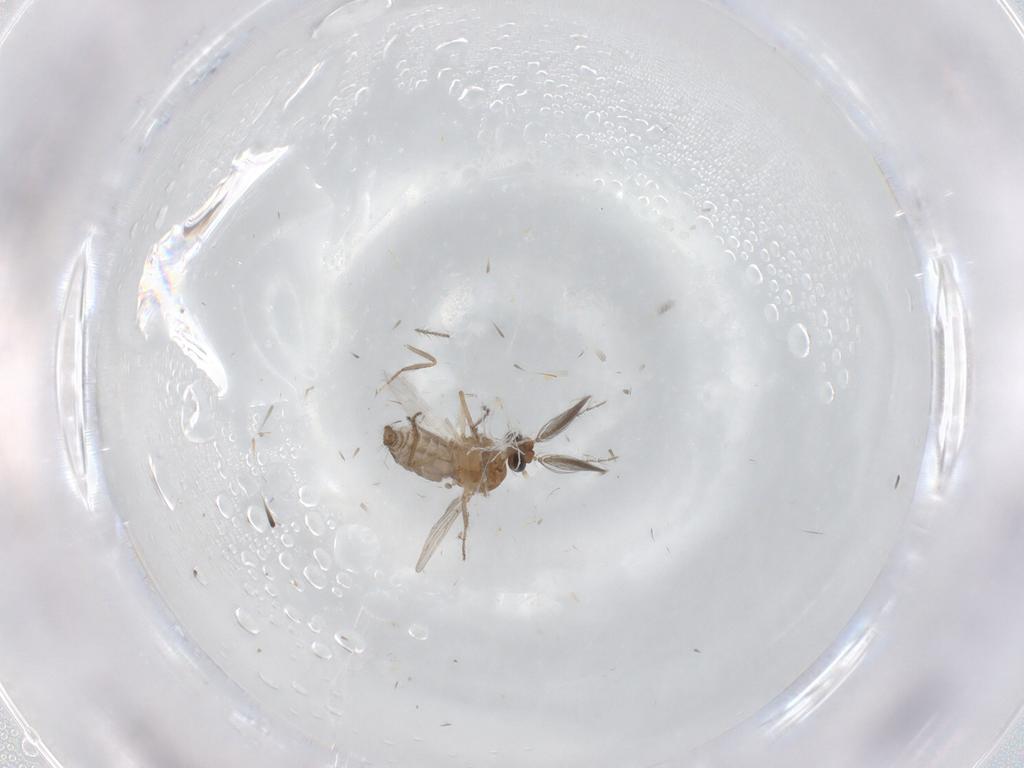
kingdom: Animalia
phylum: Arthropoda
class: Insecta
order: Diptera
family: Ceratopogonidae
